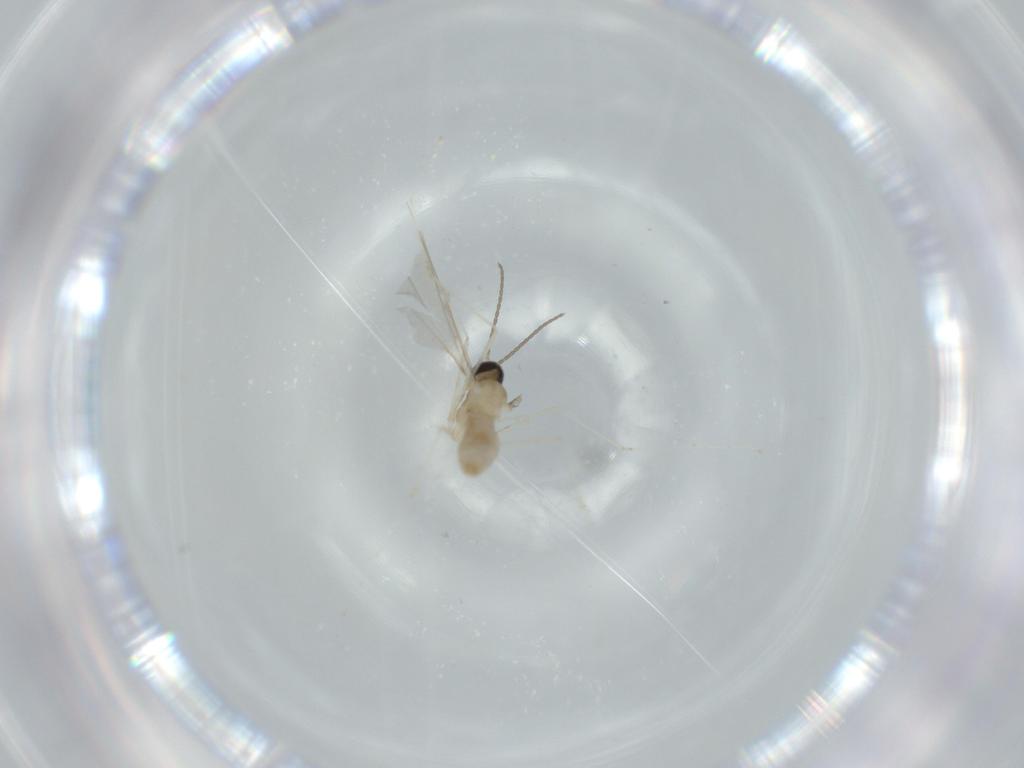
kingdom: Animalia
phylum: Arthropoda
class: Insecta
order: Diptera
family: Cecidomyiidae
